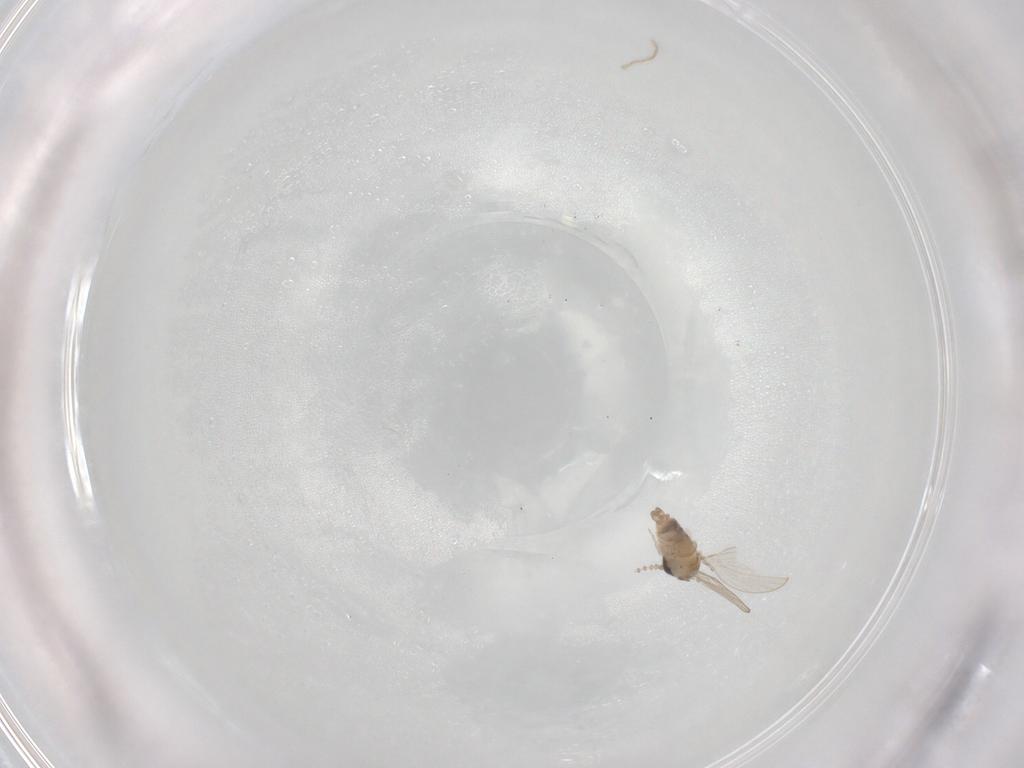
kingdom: Animalia
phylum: Arthropoda
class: Insecta
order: Diptera
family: Psychodidae
